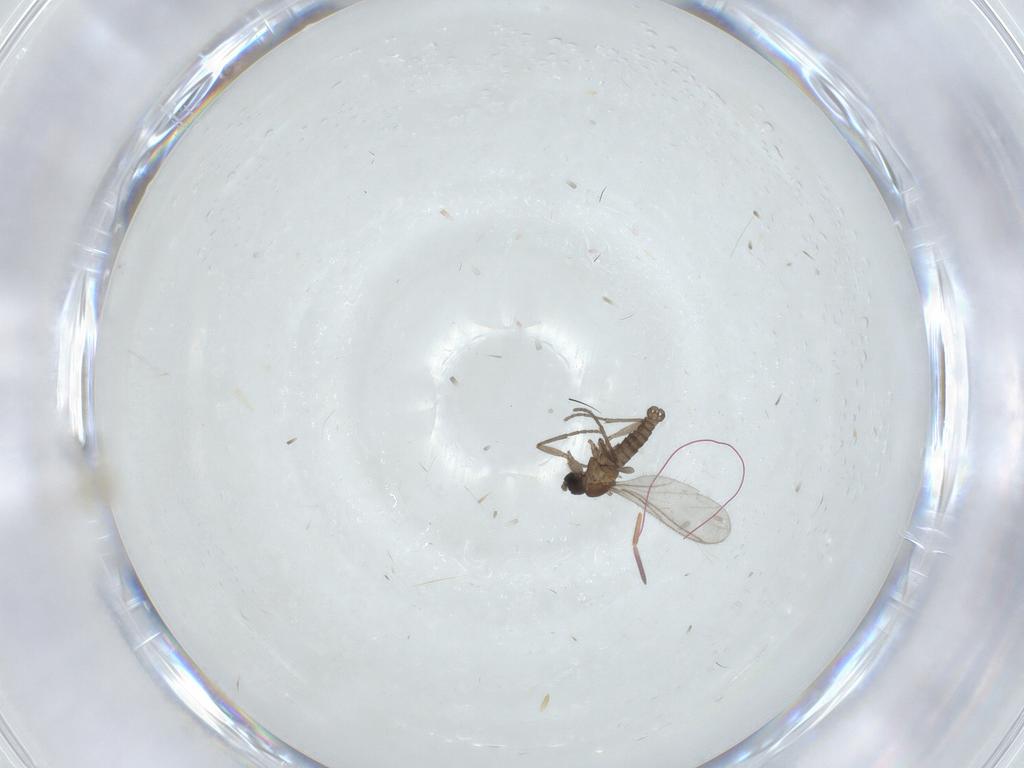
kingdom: Animalia
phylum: Arthropoda
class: Insecta
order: Diptera
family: Sciaridae
